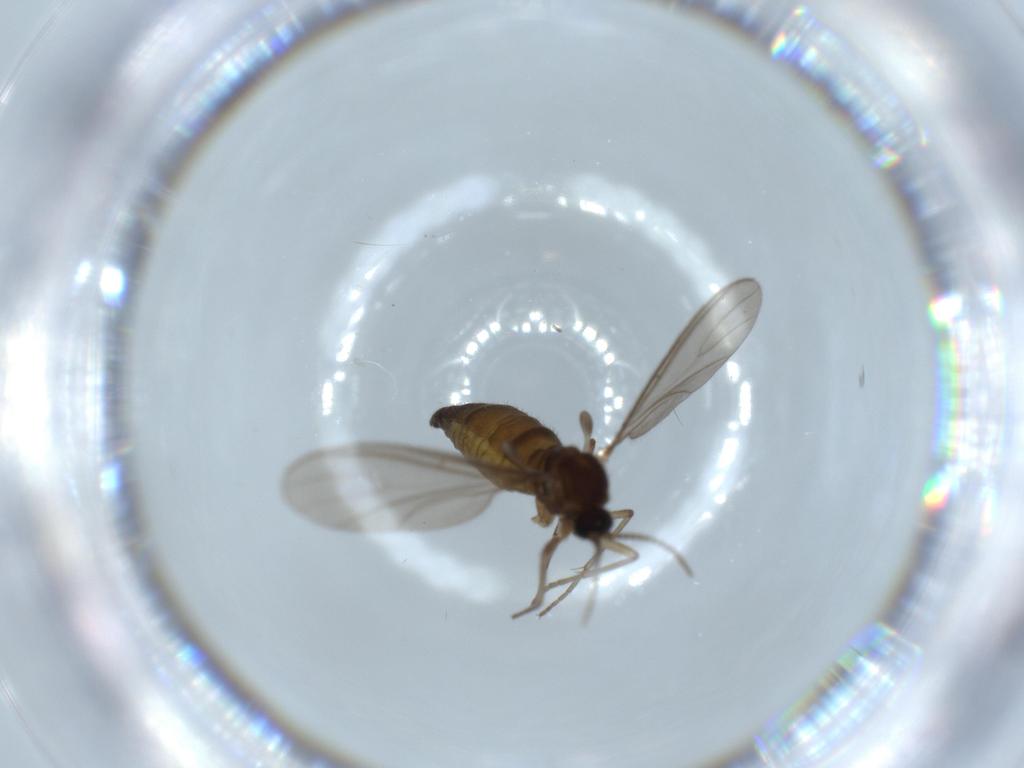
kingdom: Animalia
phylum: Arthropoda
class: Insecta
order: Diptera
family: Sciaridae
